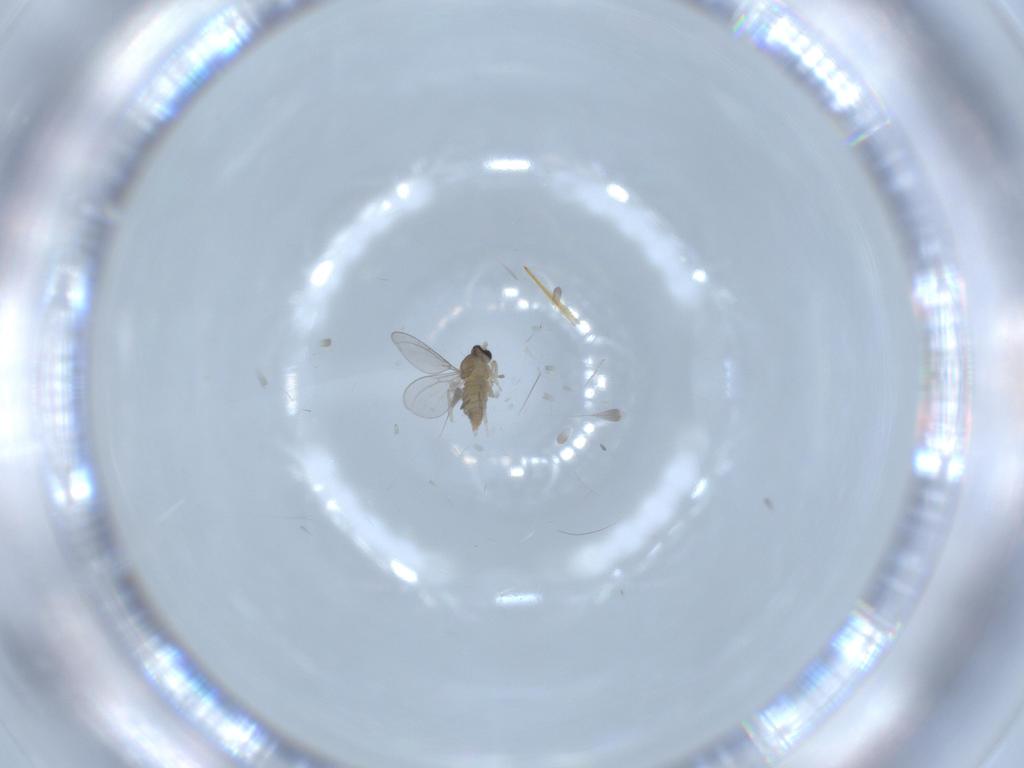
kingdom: Animalia
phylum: Arthropoda
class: Insecta
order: Diptera
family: Cecidomyiidae
